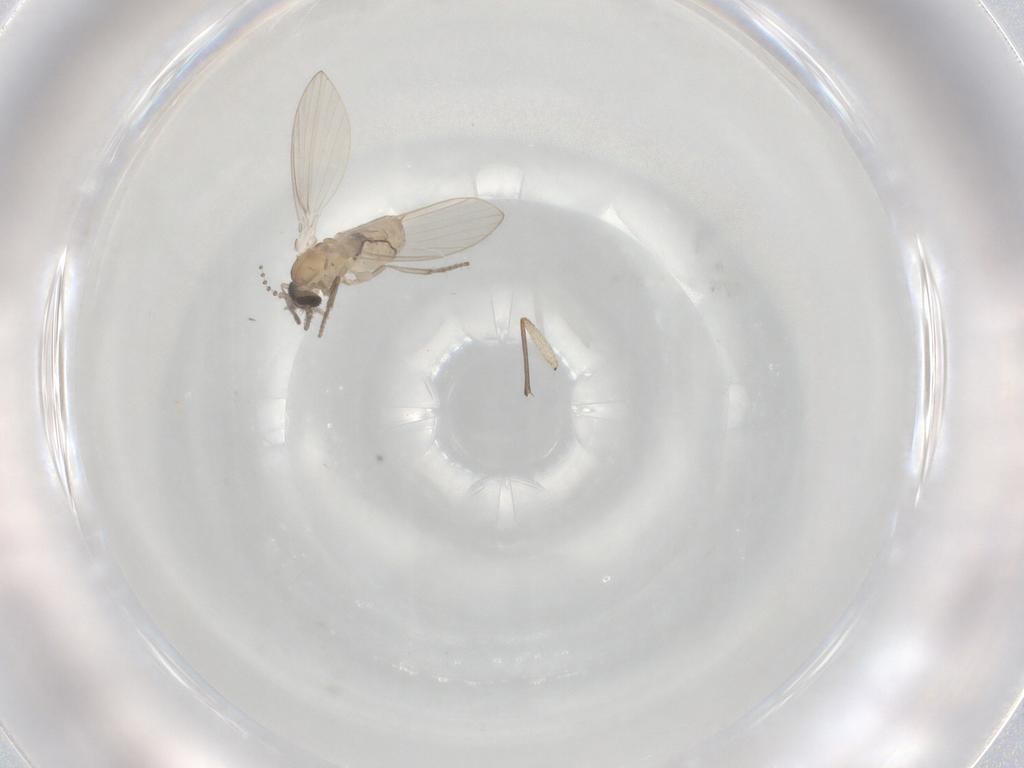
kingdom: Animalia
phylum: Arthropoda
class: Insecta
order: Diptera
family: Psychodidae
